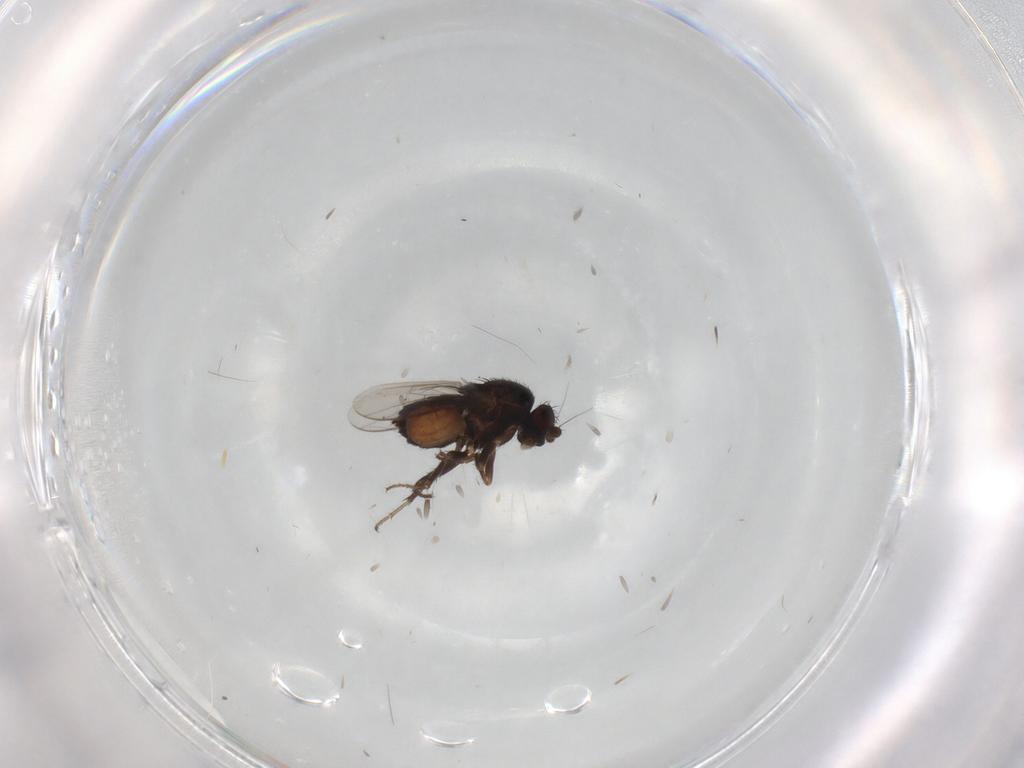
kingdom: Animalia
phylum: Arthropoda
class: Insecta
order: Diptera
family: Sphaeroceridae
